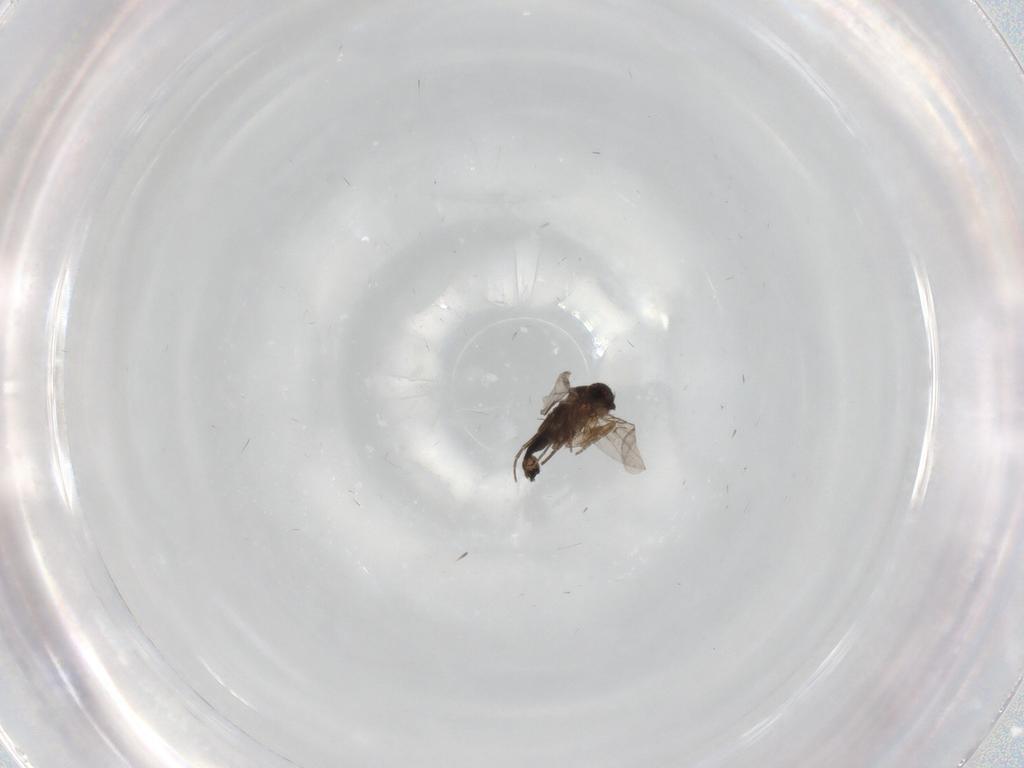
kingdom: Animalia
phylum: Arthropoda
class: Insecta
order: Diptera
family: Phoridae
